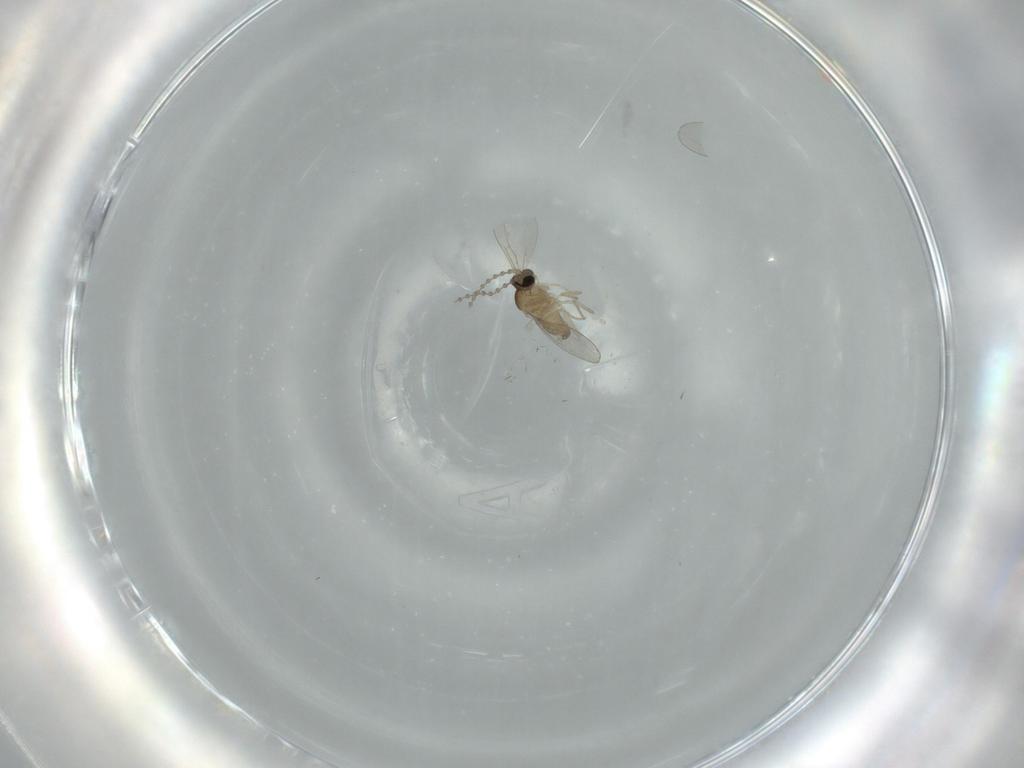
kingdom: Animalia
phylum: Arthropoda
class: Insecta
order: Diptera
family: Cecidomyiidae
